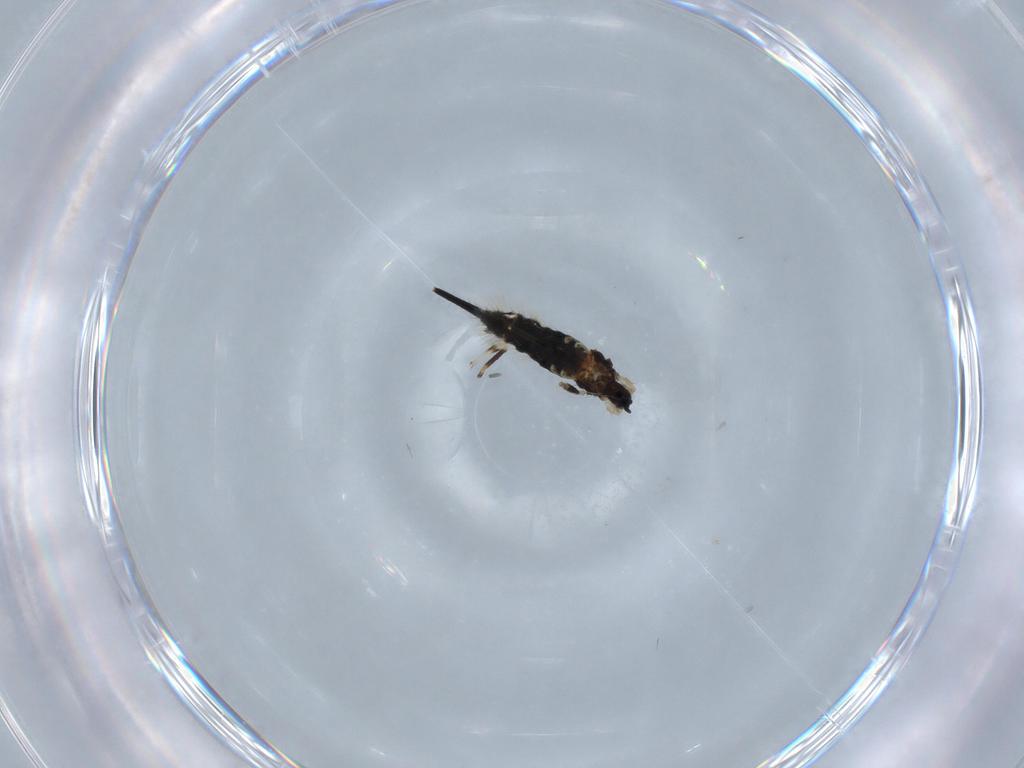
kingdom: Animalia
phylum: Arthropoda
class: Insecta
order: Thysanoptera
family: Phlaeothripidae
